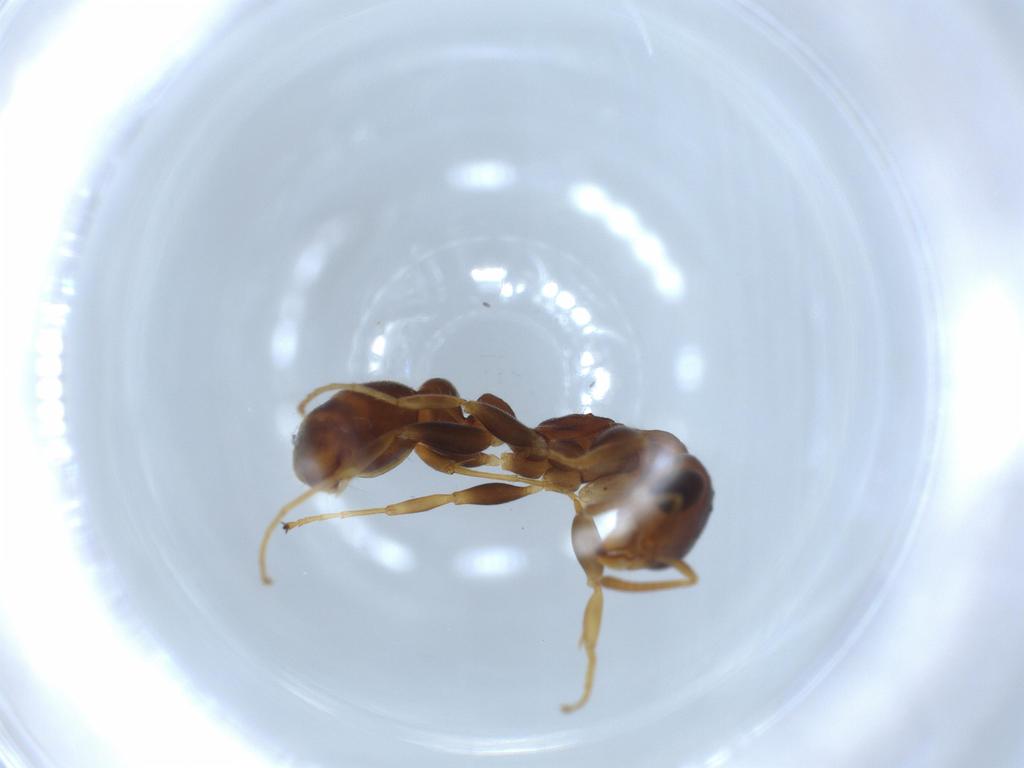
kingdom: Animalia
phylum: Arthropoda
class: Insecta
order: Hymenoptera
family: Formicidae
